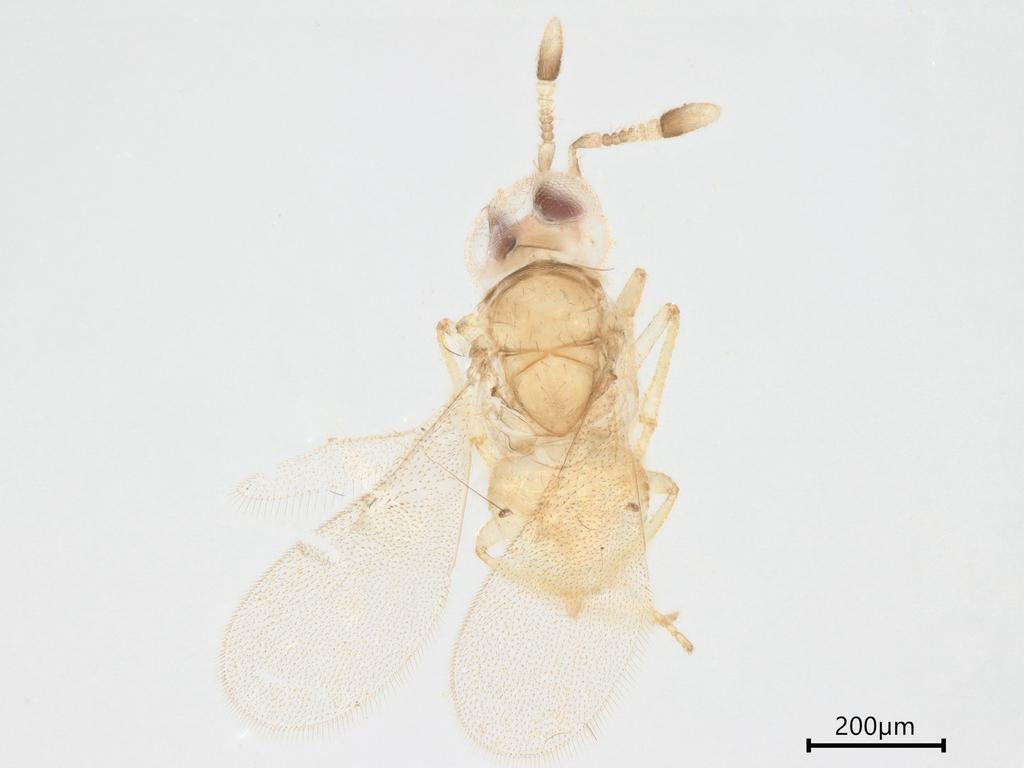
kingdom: Animalia
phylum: Arthropoda
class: Insecta
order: Hymenoptera
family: Encyrtidae
